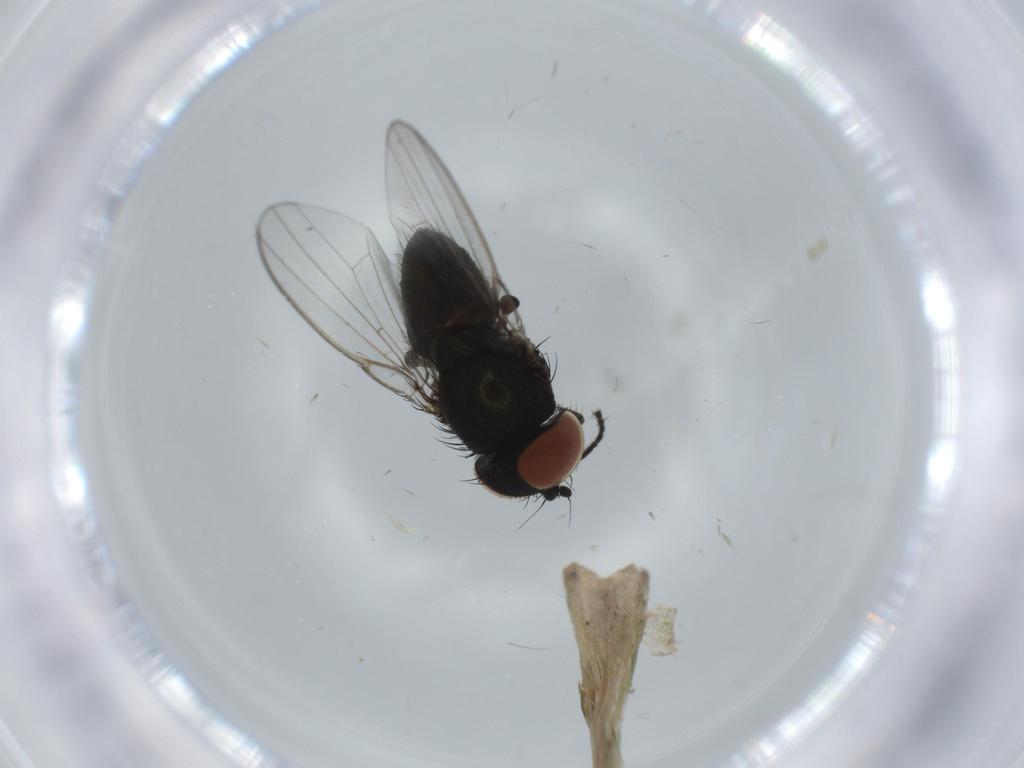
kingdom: Animalia
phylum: Arthropoda
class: Insecta
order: Diptera
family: Milichiidae
